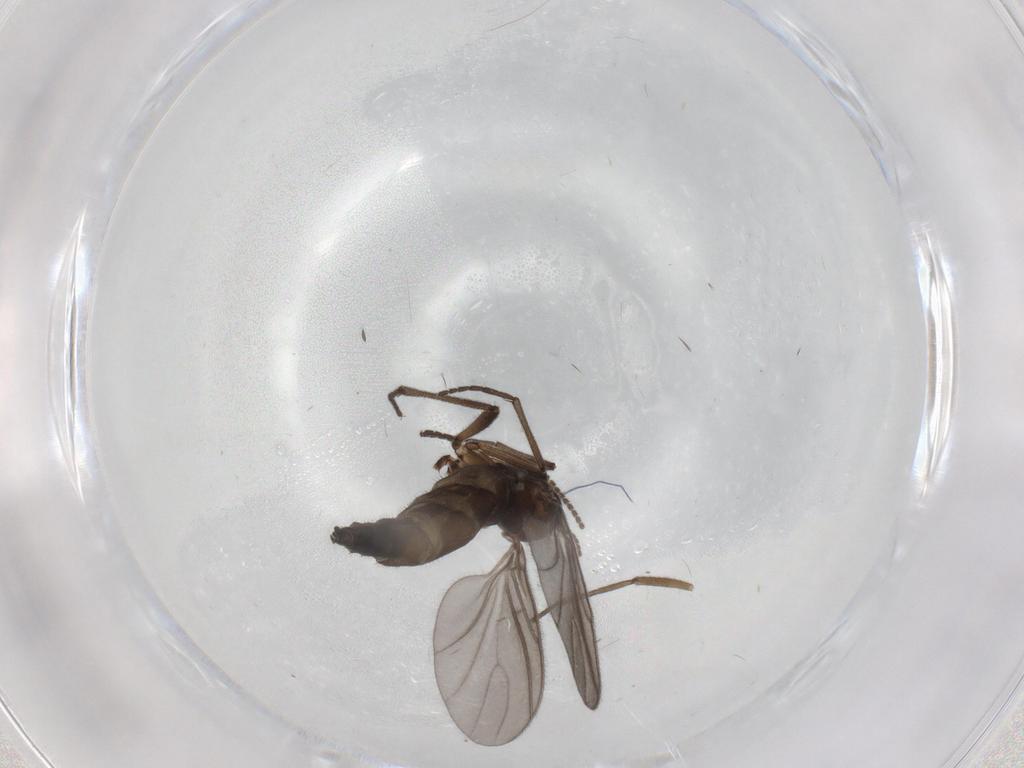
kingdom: Animalia
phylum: Arthropoda
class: Insecta
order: Diptera
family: Sciaridae
